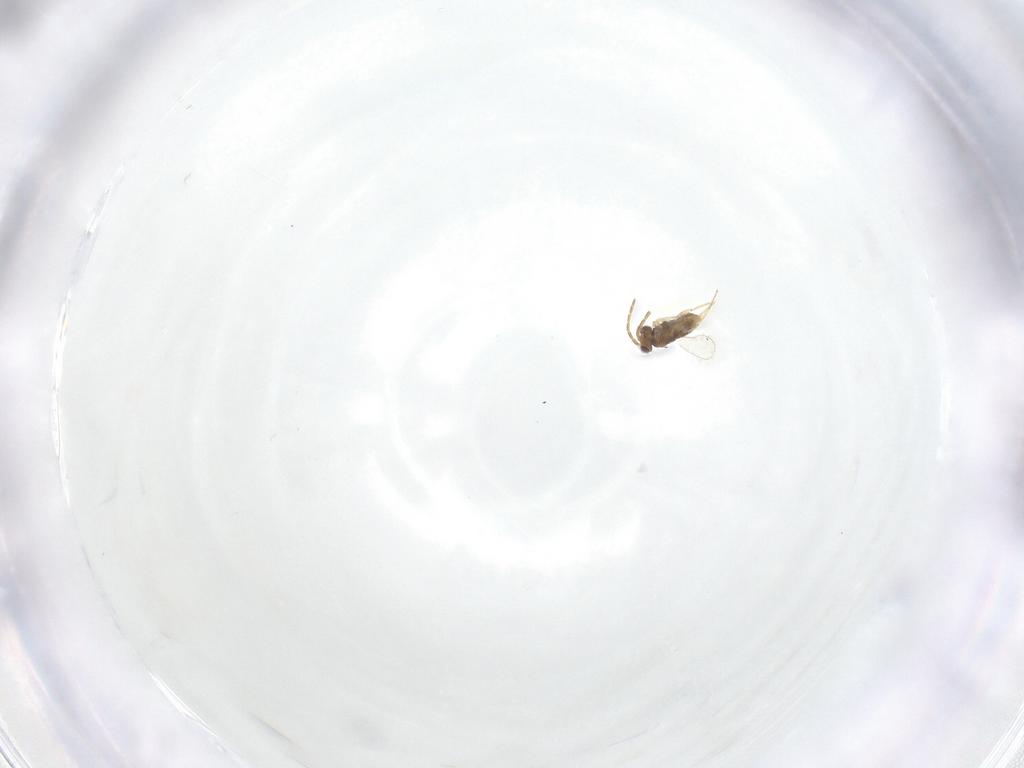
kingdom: Animalia
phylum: Arthropoda
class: Insecta
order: Hymenoptera
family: Aphelinidae
